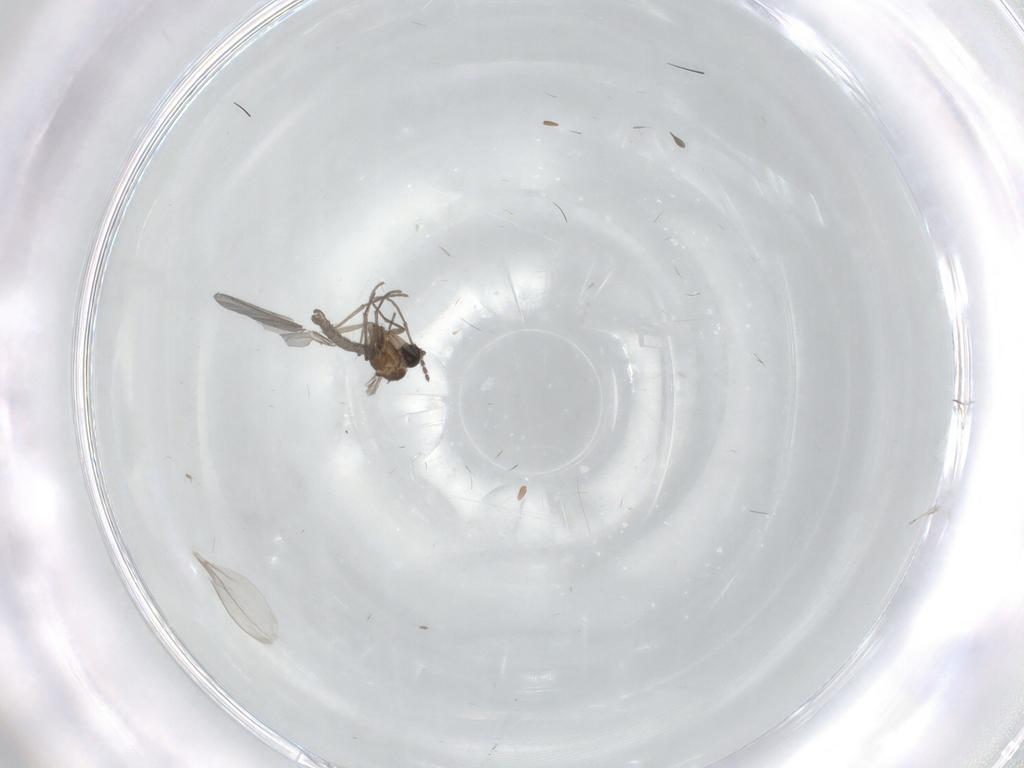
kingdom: Animalia
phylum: Arthropoda
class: Insecta
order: Diptera
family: Sciaridae
